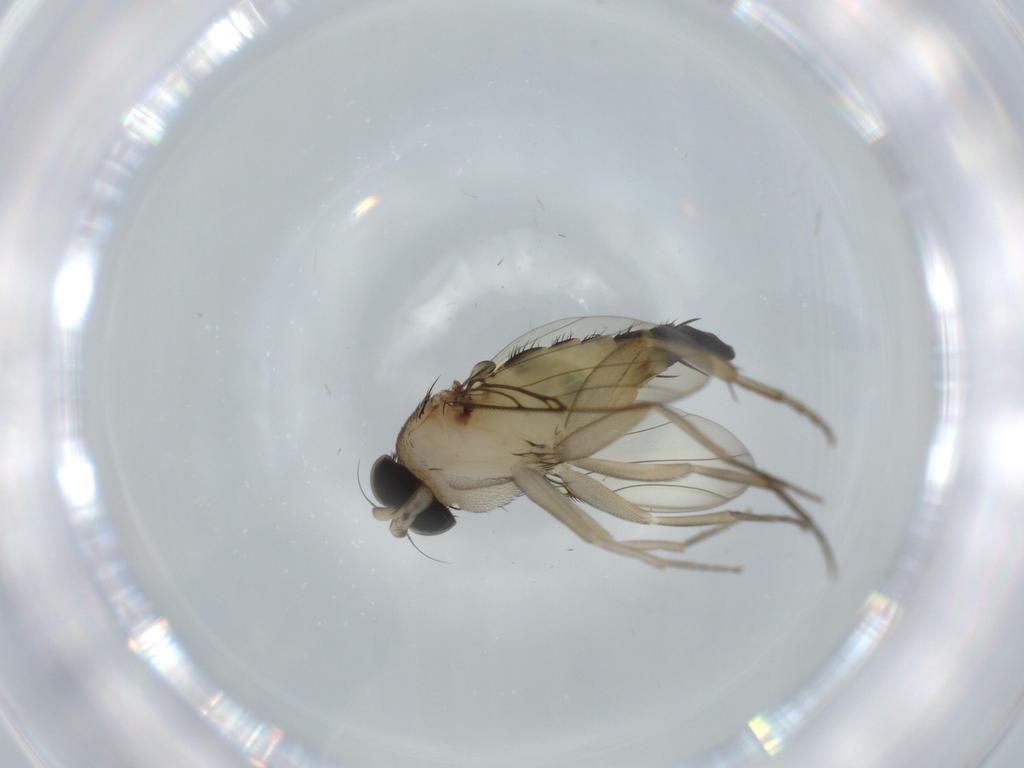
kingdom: Animalia
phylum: Arthropoda
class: Insecta
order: Diptera
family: Phoridae
